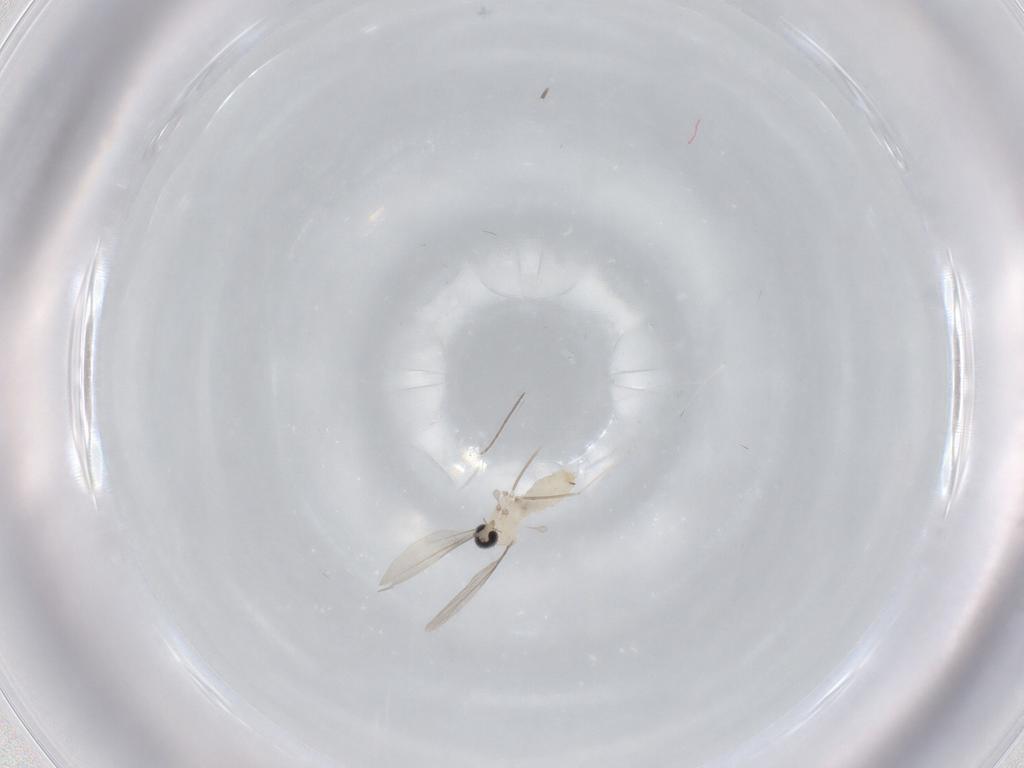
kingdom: Animalia
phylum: Arthropoda
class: Insecta
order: Diptera
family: Cecidomyiidae
